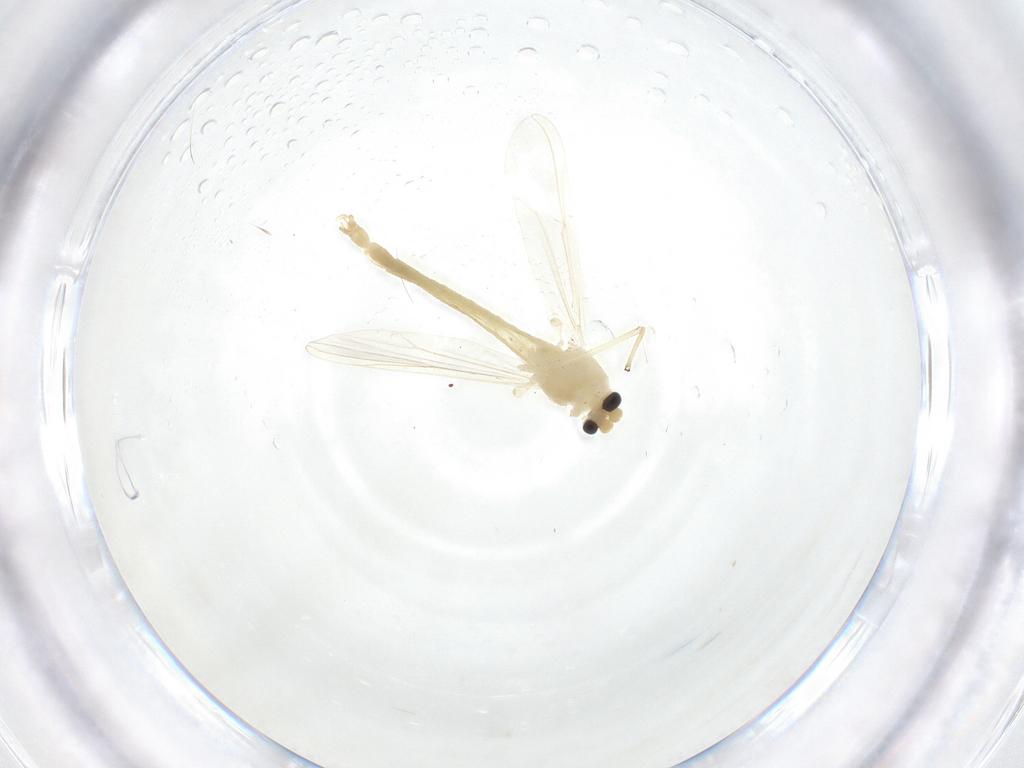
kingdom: Animalia
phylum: Arthropoda
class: Insecta
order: Diptera
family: Chironomidae
